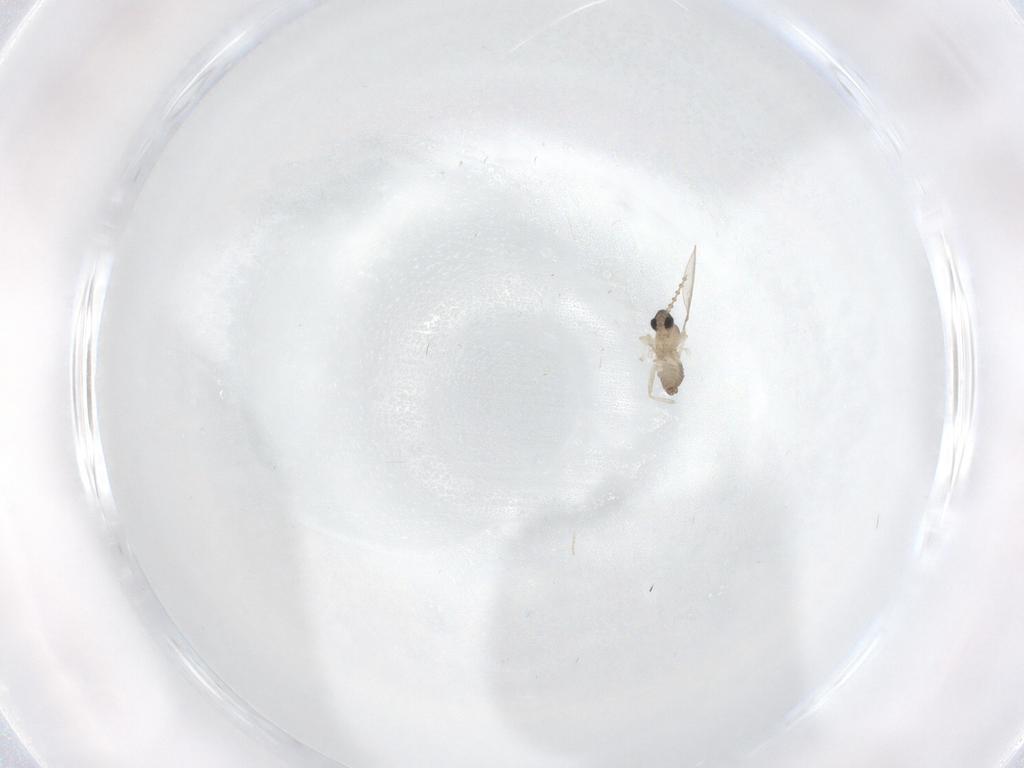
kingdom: Animalia
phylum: Arthropoda
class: Insecta
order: Diptera
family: Cecidomyiidae
